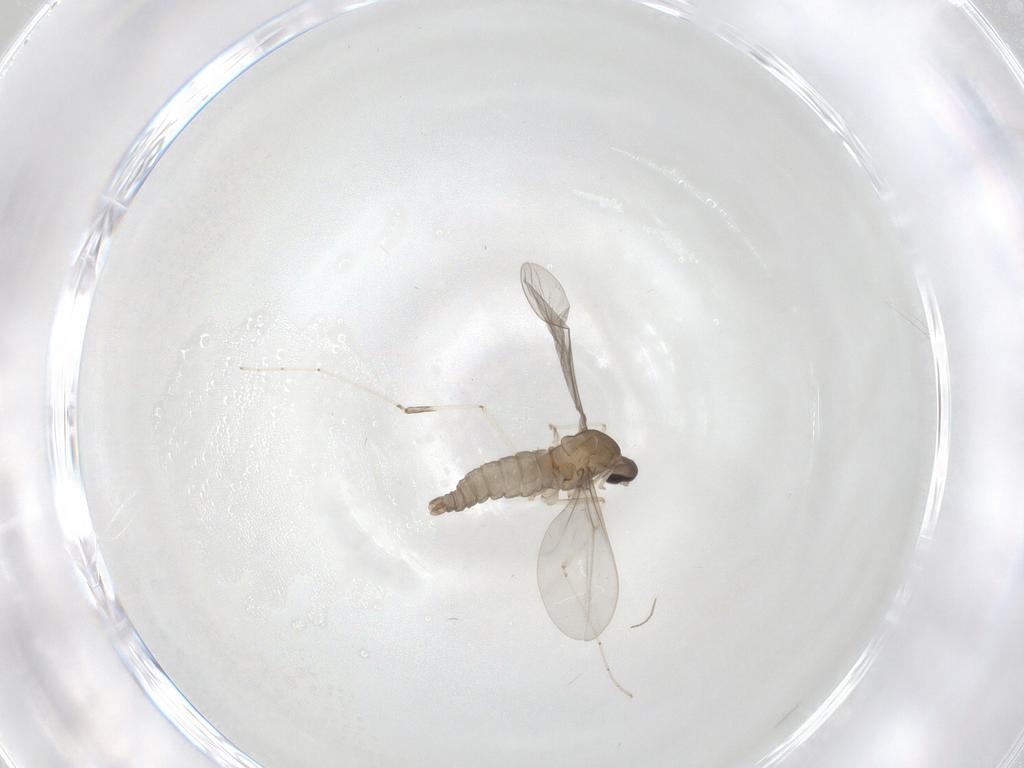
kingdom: Animalia
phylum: Arthropoda
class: Insecta
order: Diptera
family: Cecidomyiidae
